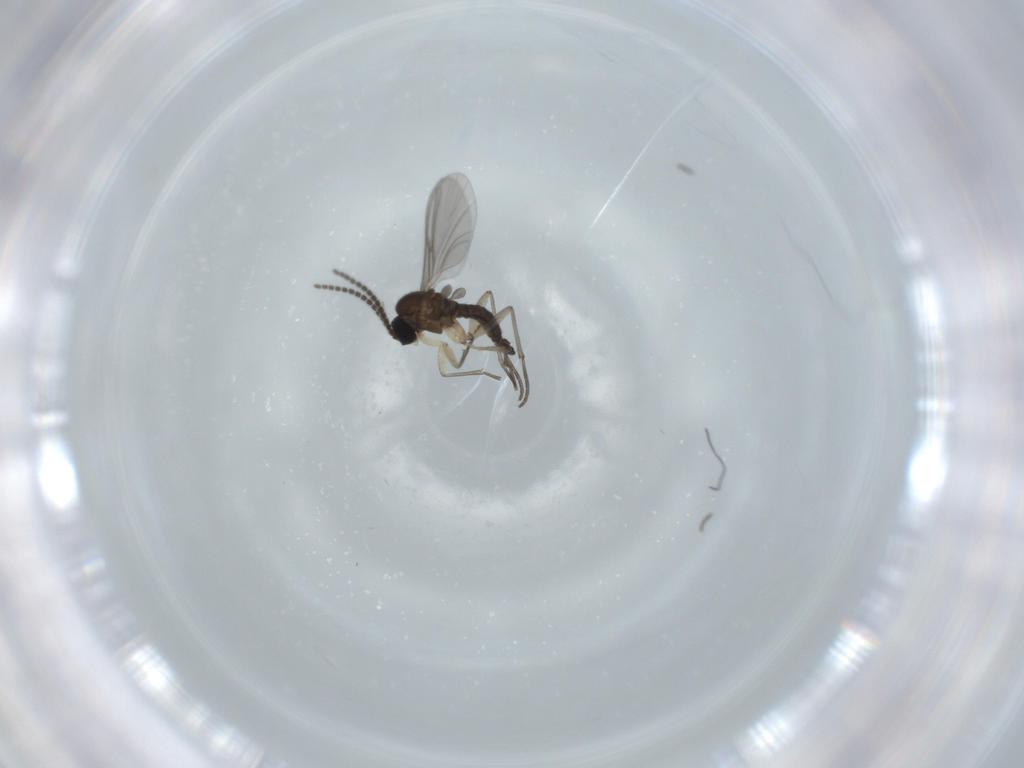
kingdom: Animalia
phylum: Arthropoda
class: Insecta
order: Diptera
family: Sciaridae
